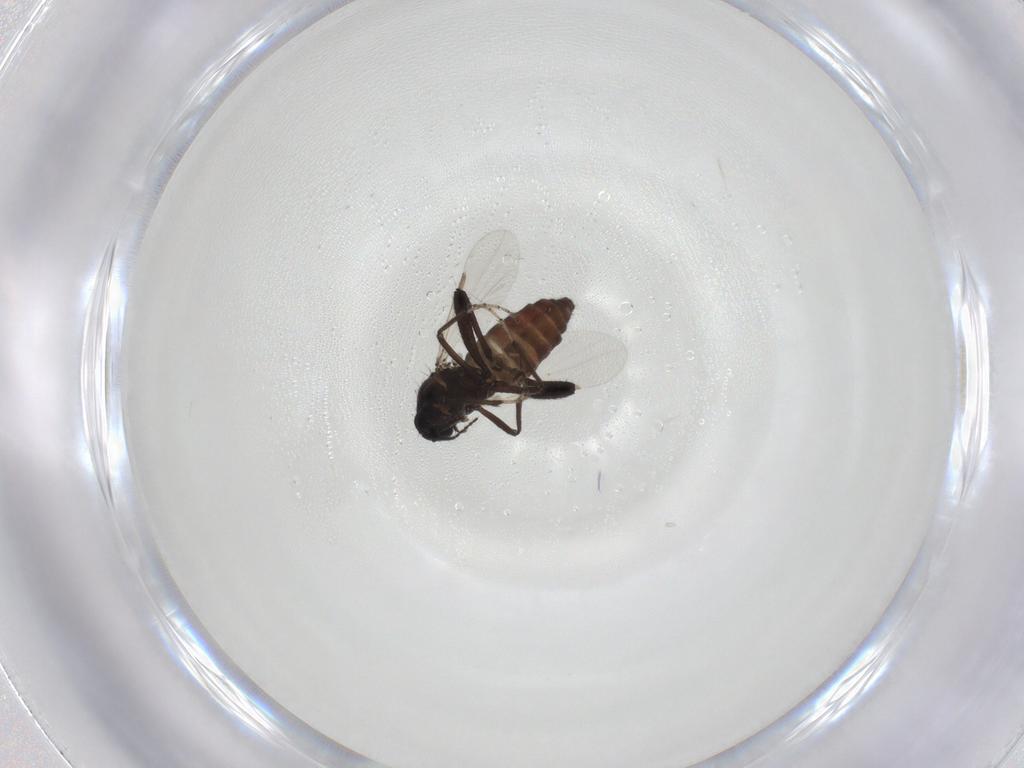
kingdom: Animalia
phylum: Arthropoda
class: Insecta
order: Diptera
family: Ceratopogonidae
